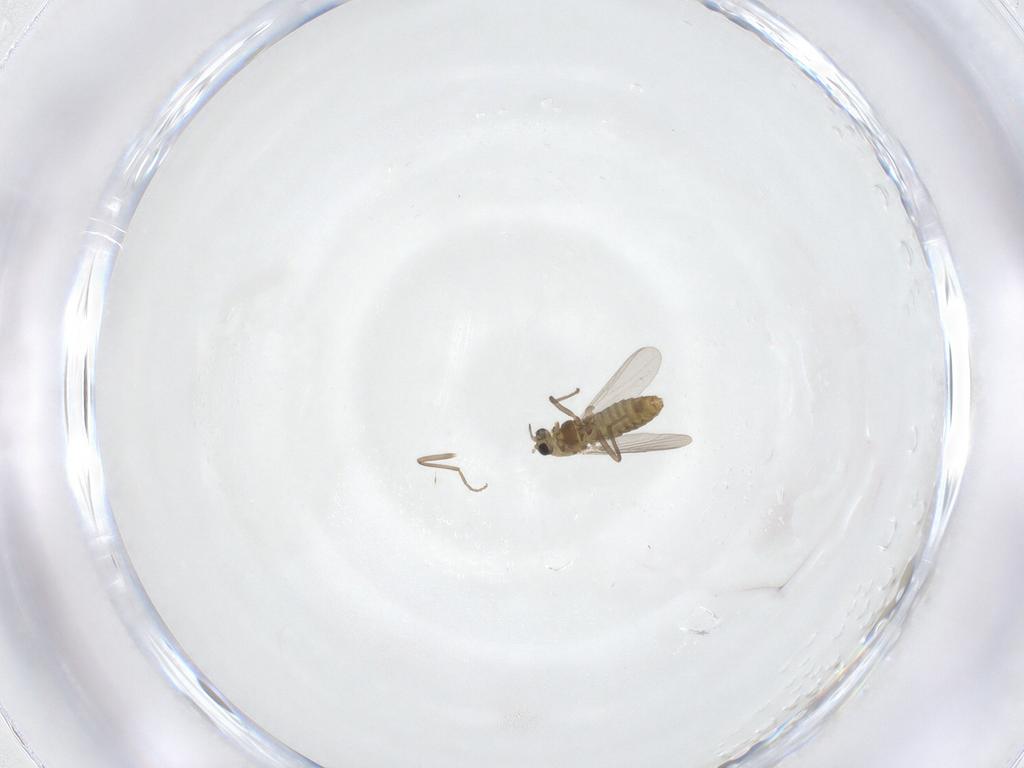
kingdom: Animalia
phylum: Arthropoda
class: Insecta
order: Diptera
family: Chironomidae
